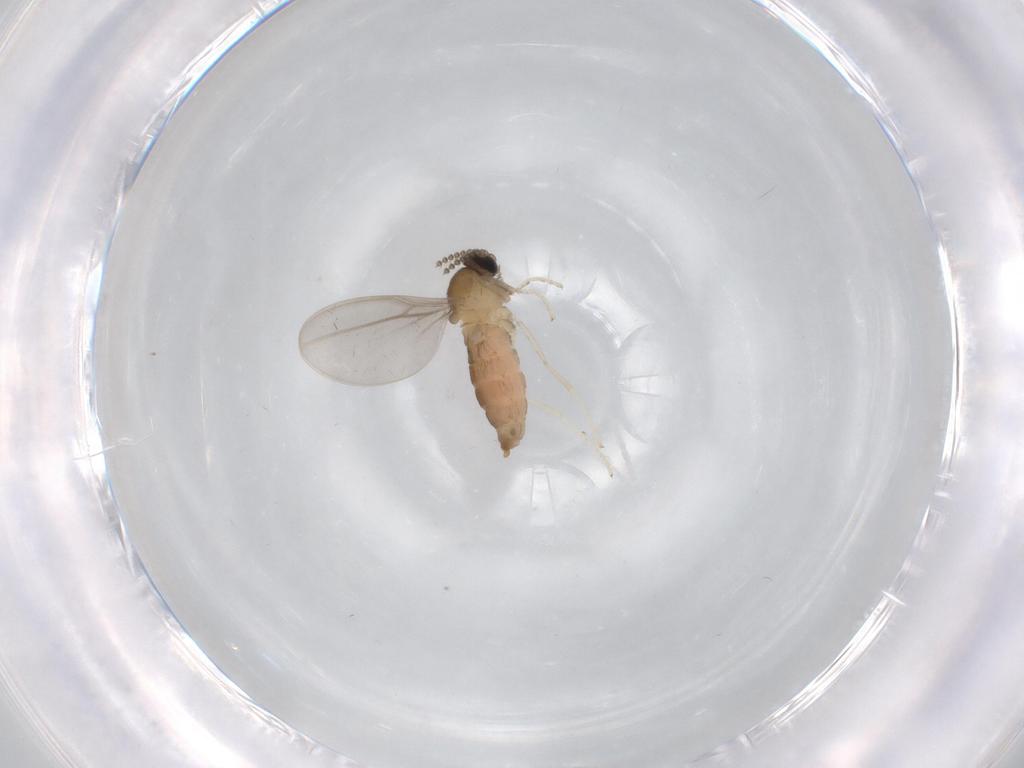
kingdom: Animalia
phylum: Arthropoda
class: Insecta
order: Diptera
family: Cecidomyiidae
